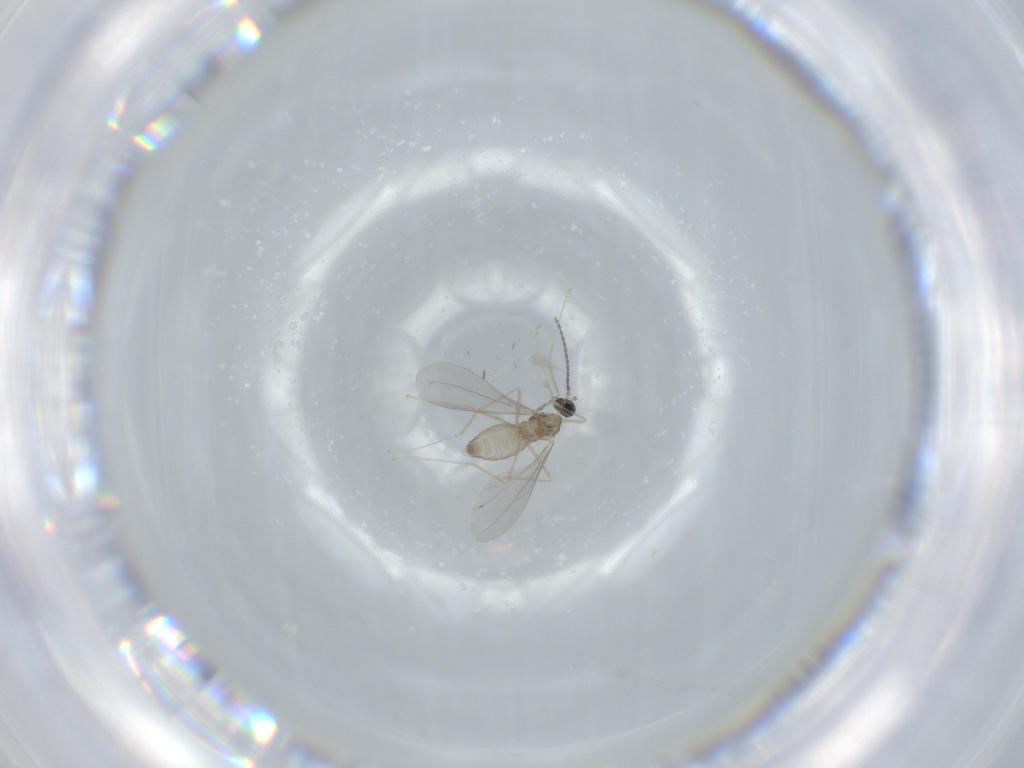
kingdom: Animalia
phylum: Arthropoda
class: Insecta
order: Diptera
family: Cecidomyiidae
